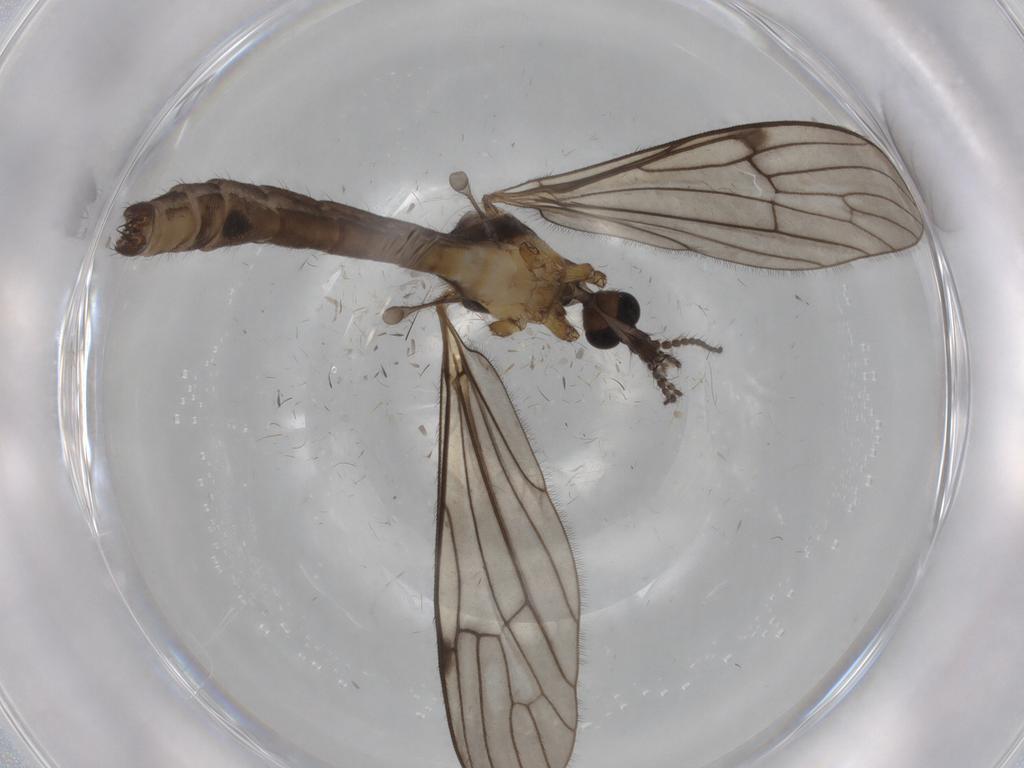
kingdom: Animalia
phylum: Arthropoda
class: Insecta
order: Diptera
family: Limoniidae
